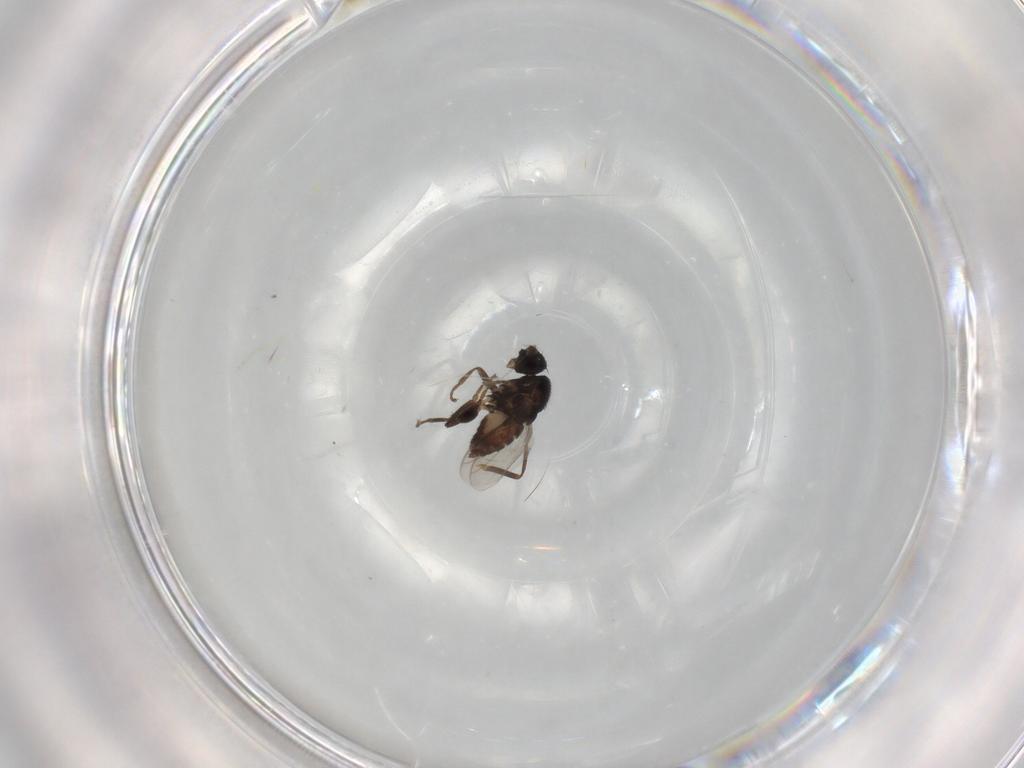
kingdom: Animalia
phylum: Arthropoda
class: Insecta
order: Diptera
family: Sphaeroceridae
